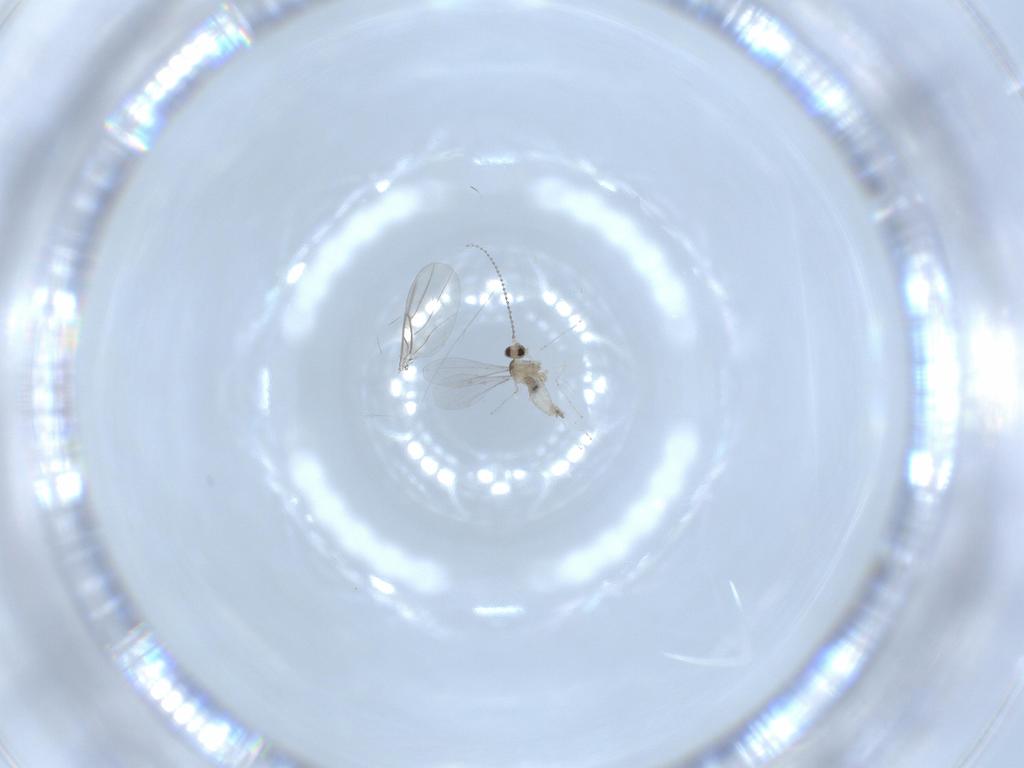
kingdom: Animalia
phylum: Arthropoda
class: Insecta
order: Diptera
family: Cecidomyiidae
